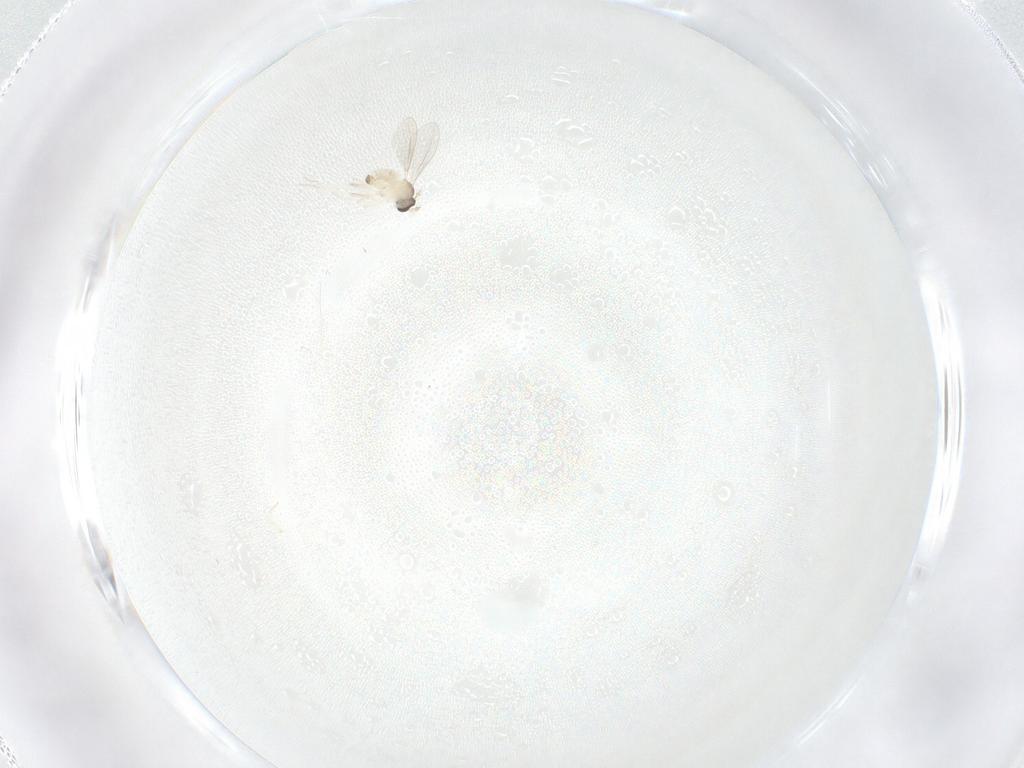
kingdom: Animalia
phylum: Arthropoda
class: Insecta
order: Diptera
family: Cecidomyiidae
